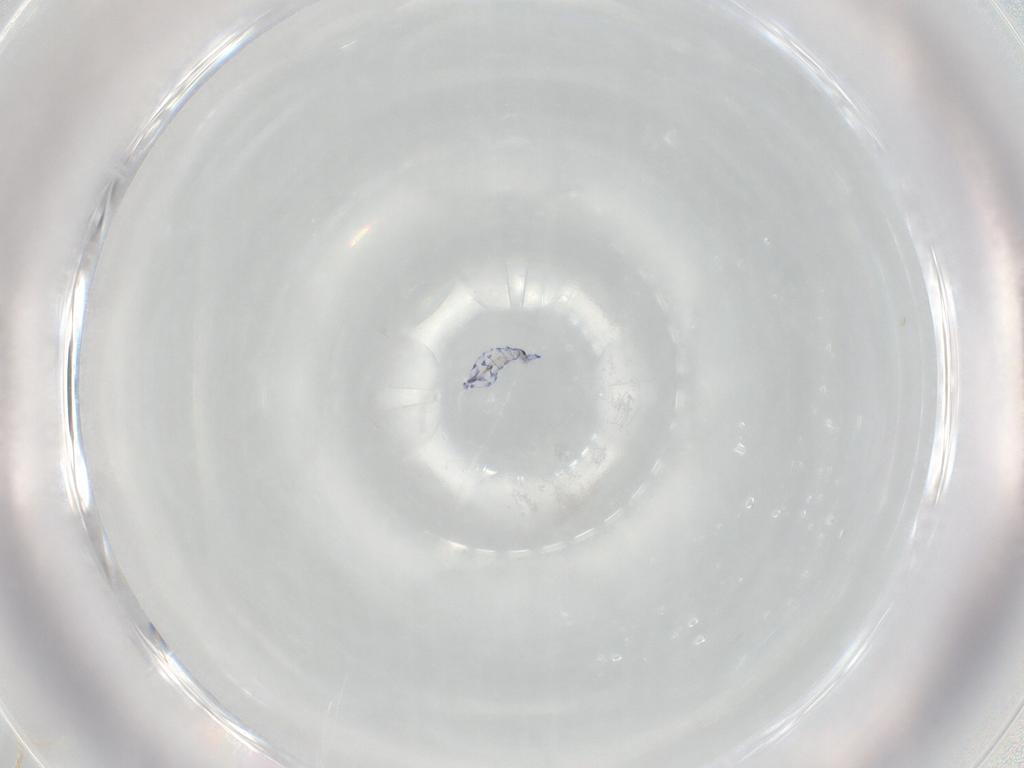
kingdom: Animalia
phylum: Arthropoda
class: Collembola
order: Entomobryomorpha
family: Entomobryidae
